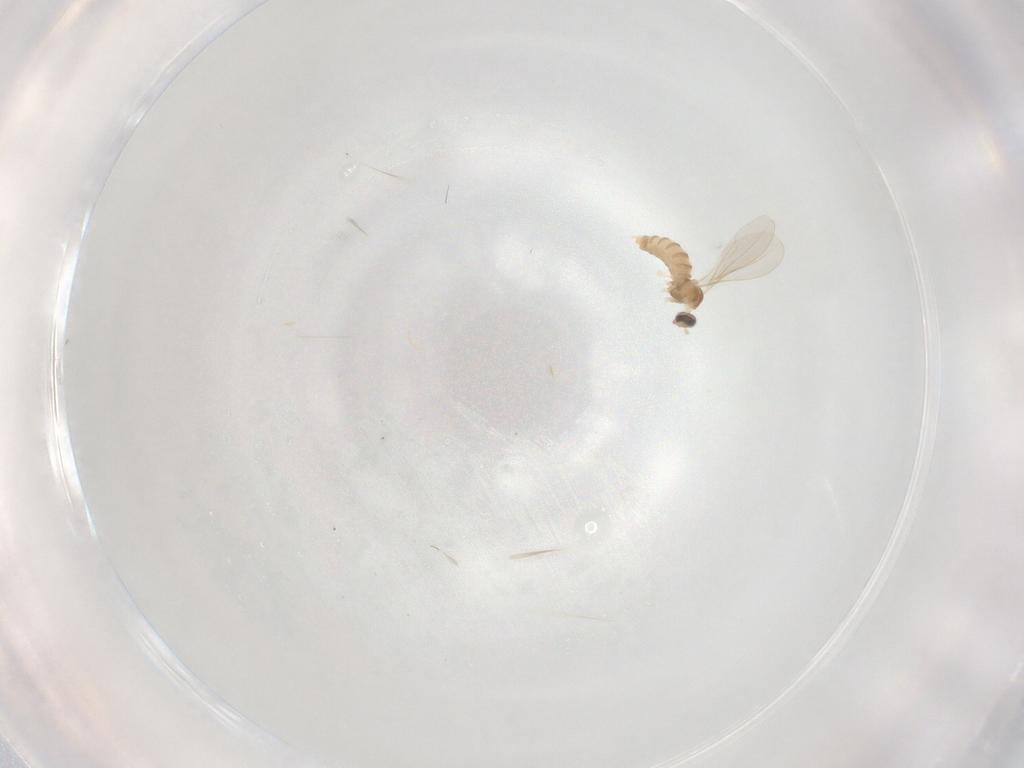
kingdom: Animalia
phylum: Arthropoda
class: Insecta
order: Diptera
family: Cecidomyiidae
